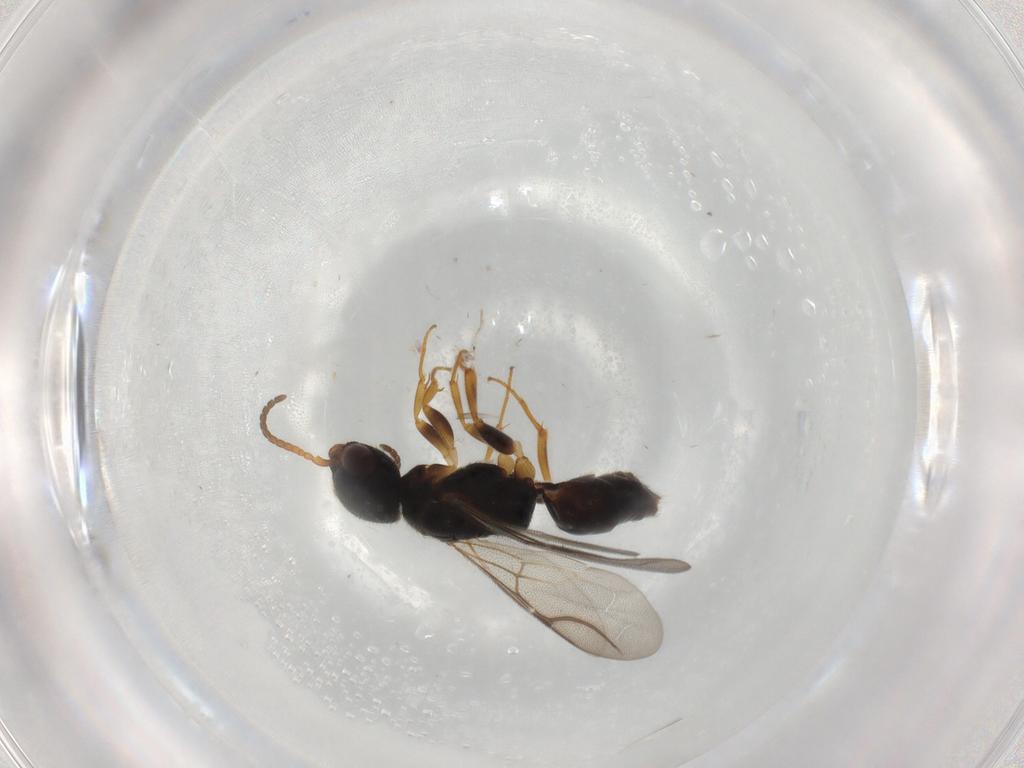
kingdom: Animalia
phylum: Arthropoda
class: Insecta
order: Hymenoptera
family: Bethylidae
